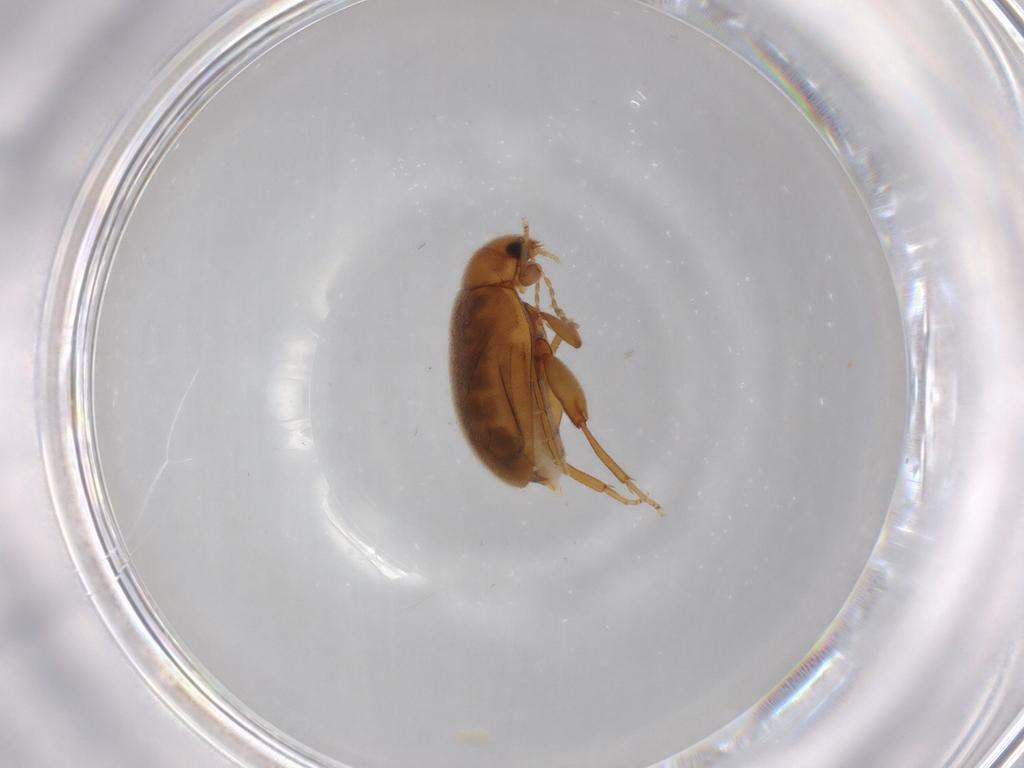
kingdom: Animalia
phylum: Arthropoda
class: Insecta
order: Coleoptera
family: Scirtidae
